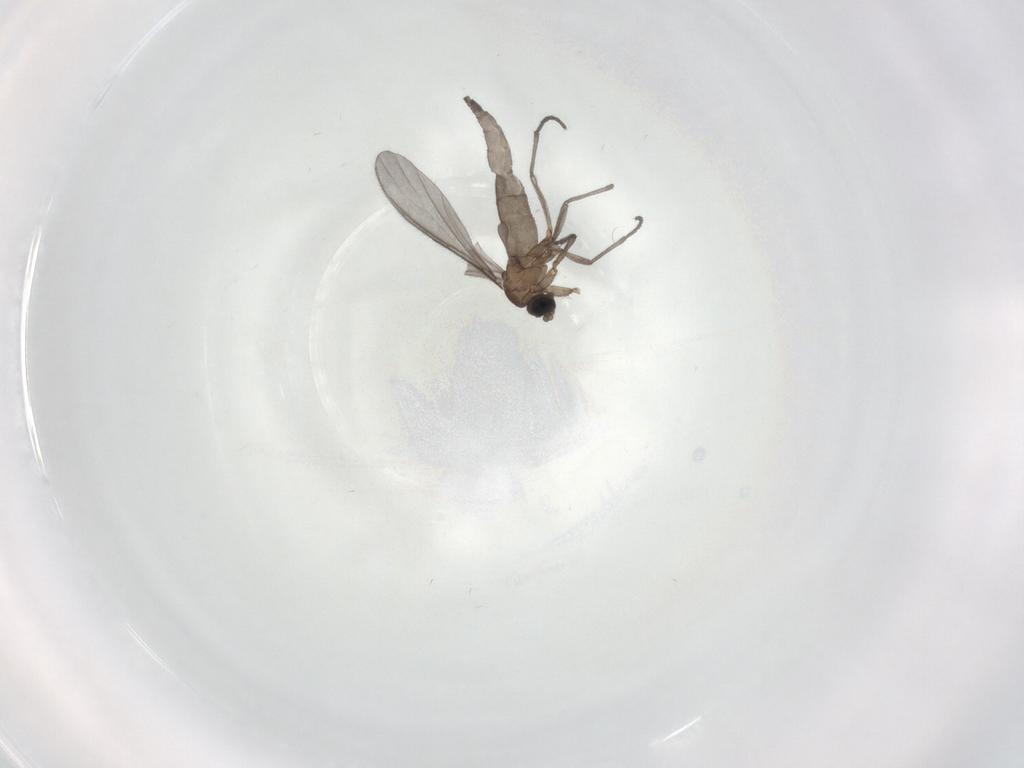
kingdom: Animalia
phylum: Arthropoda
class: Insecta
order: Diptera
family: Sciaridae
